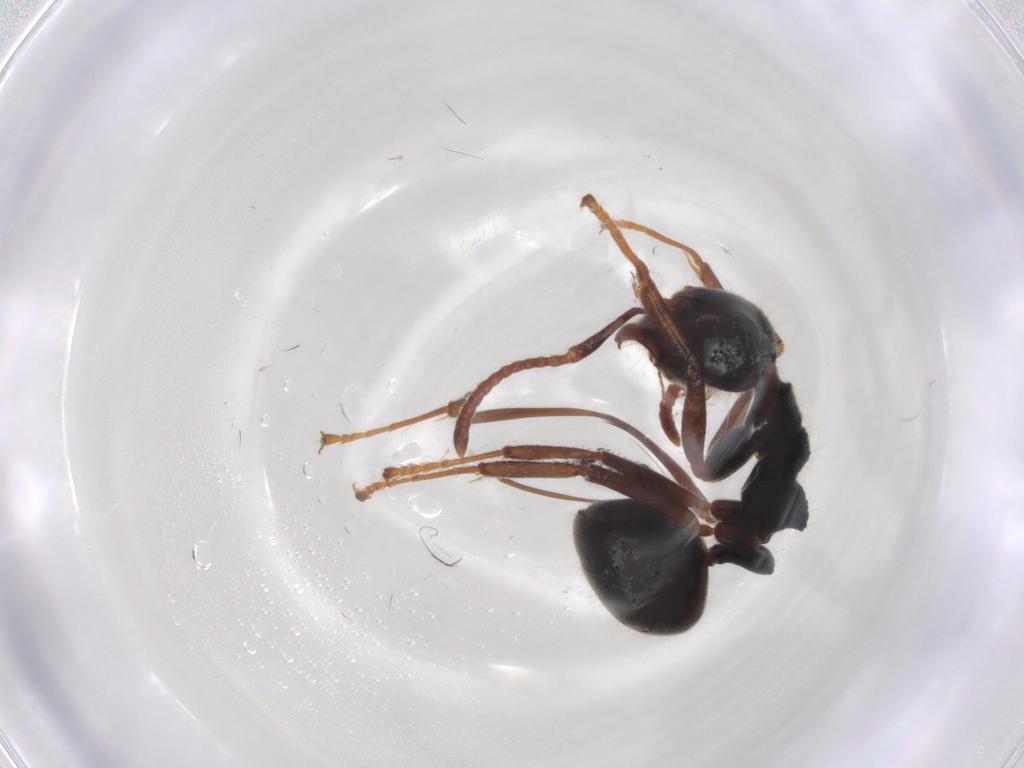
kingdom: Animalia
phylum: Arthropoda
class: Insecta
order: Hymenoptera
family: Formicidae
